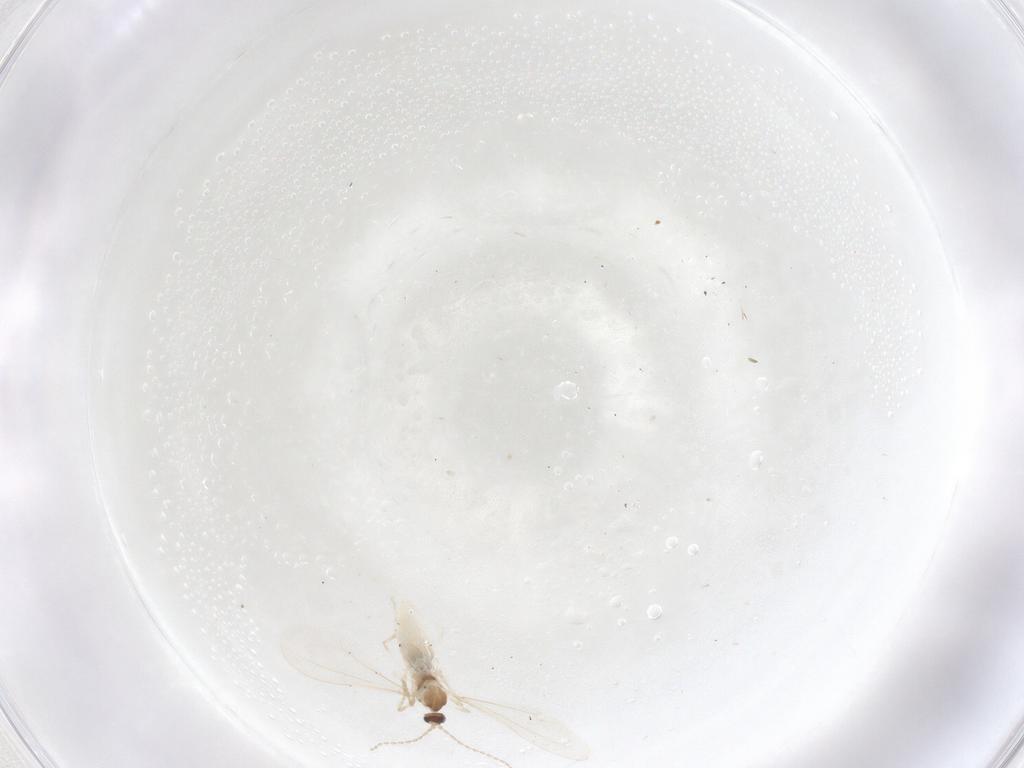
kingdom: Animalia
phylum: Arthropoda
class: Insecta
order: Diptera
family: Cecidomyiidae
